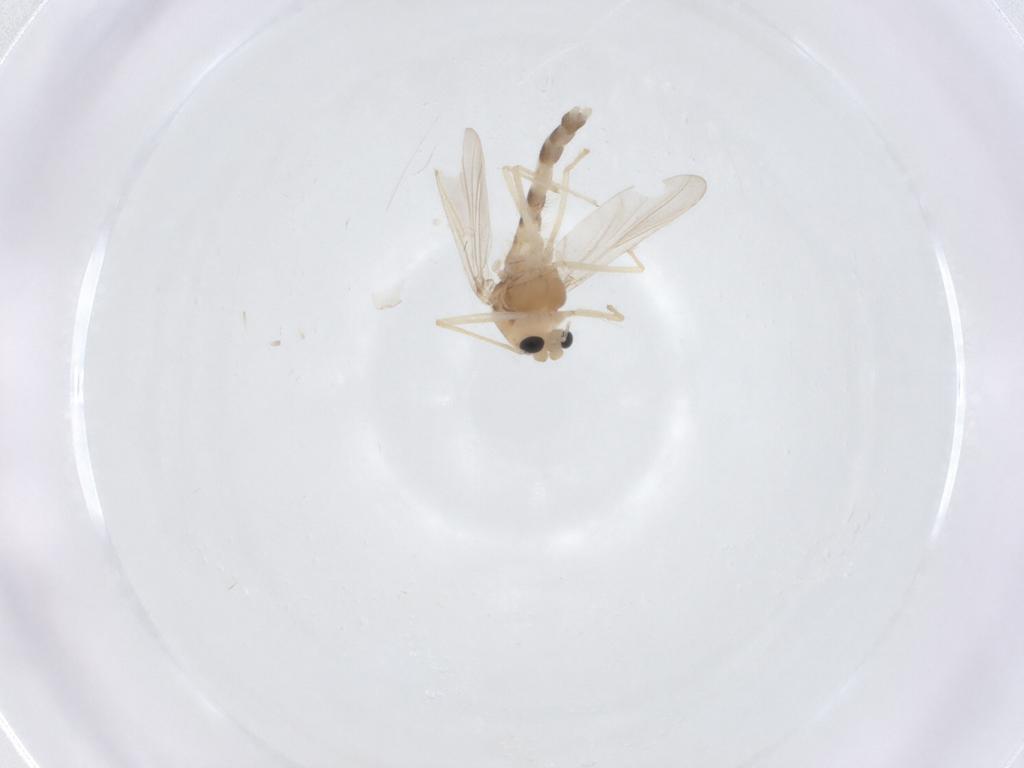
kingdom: Animalia
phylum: Arthropoda
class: Insecta
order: Diptera
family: Chironomidae
